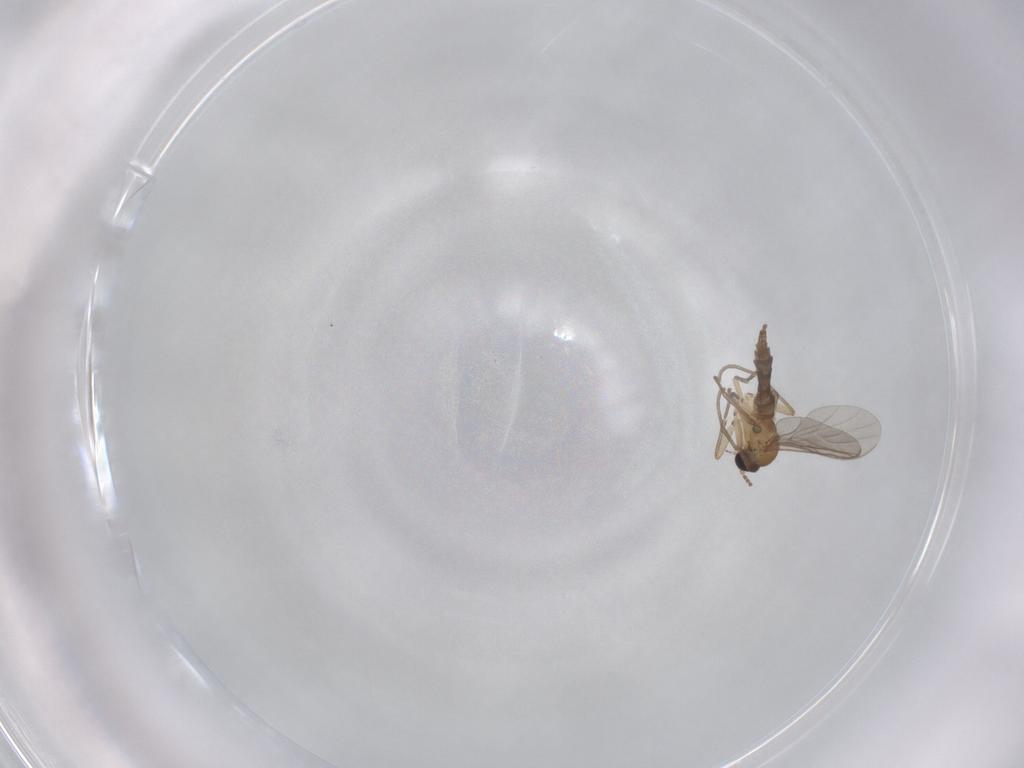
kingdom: Animalia
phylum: Arthropoda
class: Insecta
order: Diptera
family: Sciaridae
